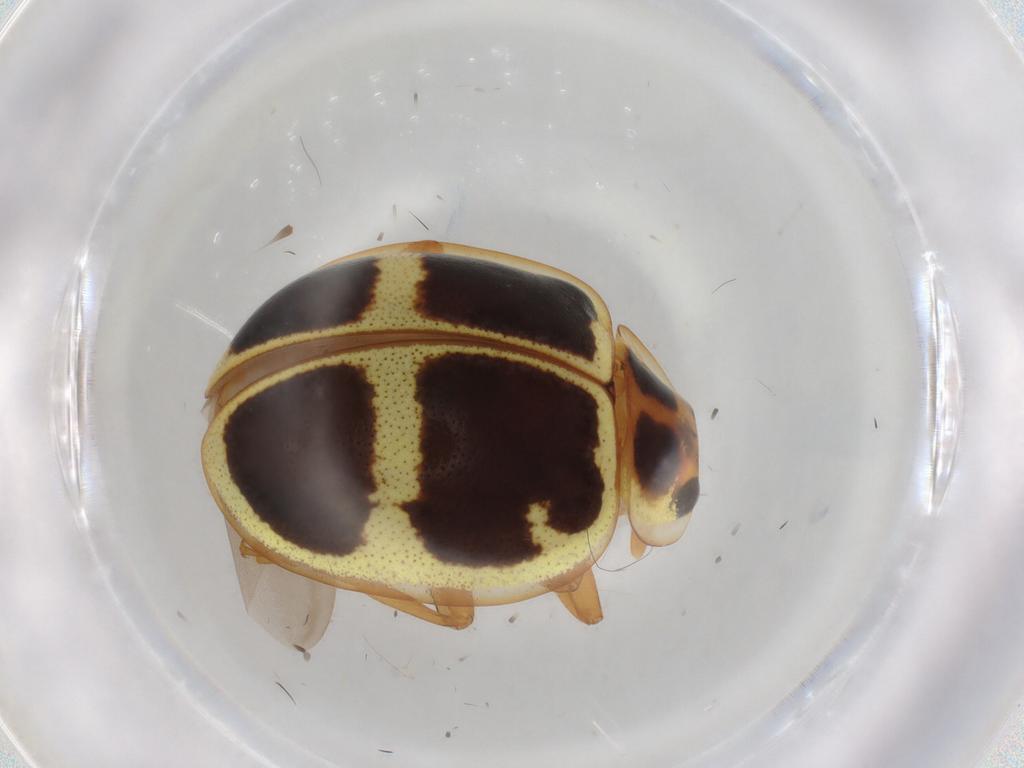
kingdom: Animalia
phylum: Arthropoda
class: Insecta
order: Coleoptera
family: Coccinellidae
